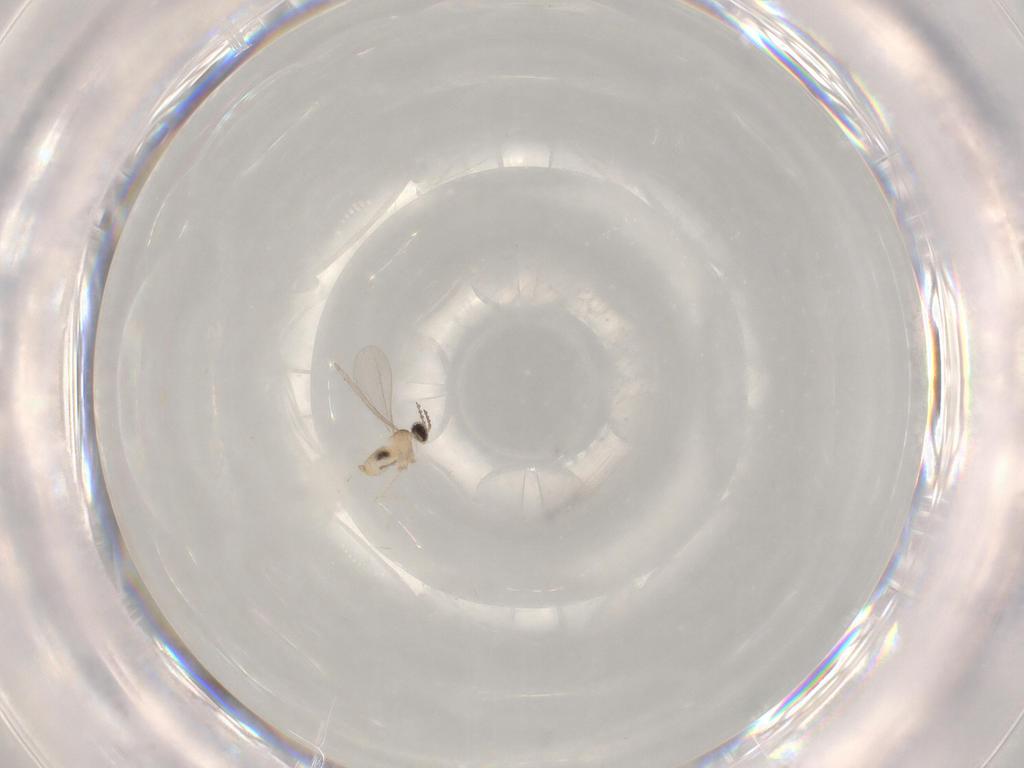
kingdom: Animalia
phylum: Arthropoda
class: Insecta
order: Diptera
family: Chironomidae
